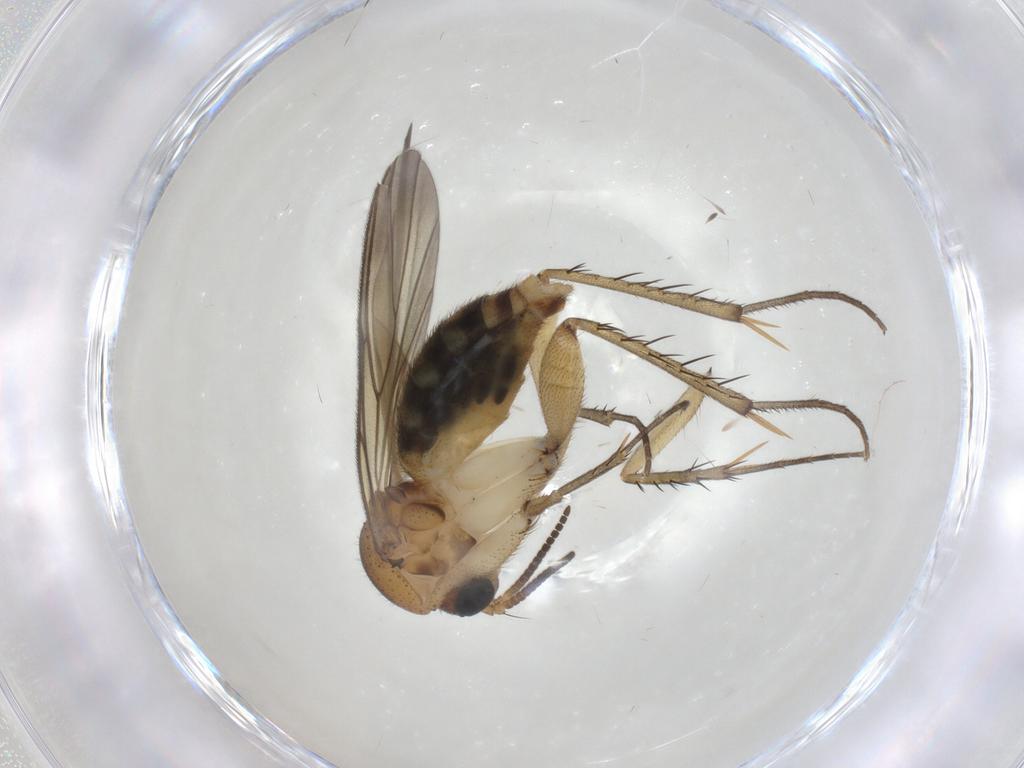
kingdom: Animalia
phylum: Arthropoda
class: Insecta
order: Diptera
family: Mycetophilidae
